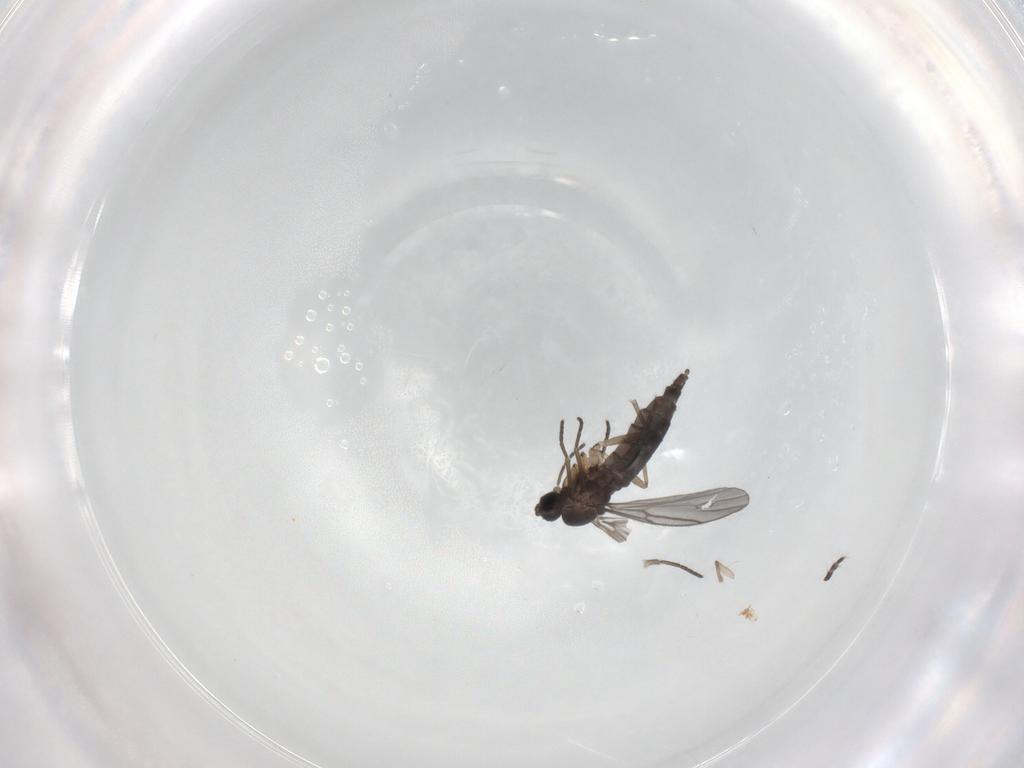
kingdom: Animalia
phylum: Arthropoda
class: Insecta
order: Diptera
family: Limoniidae
